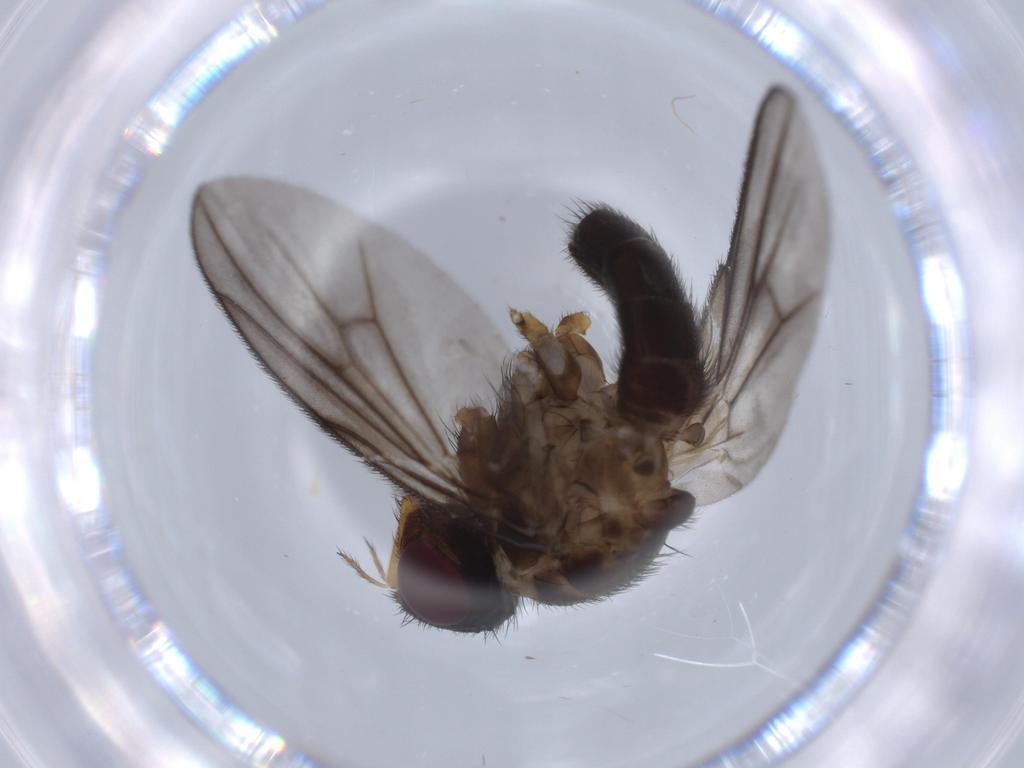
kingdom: Animalia
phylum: Arthropoda
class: Insecta
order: Diptera
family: Calliphoridae
